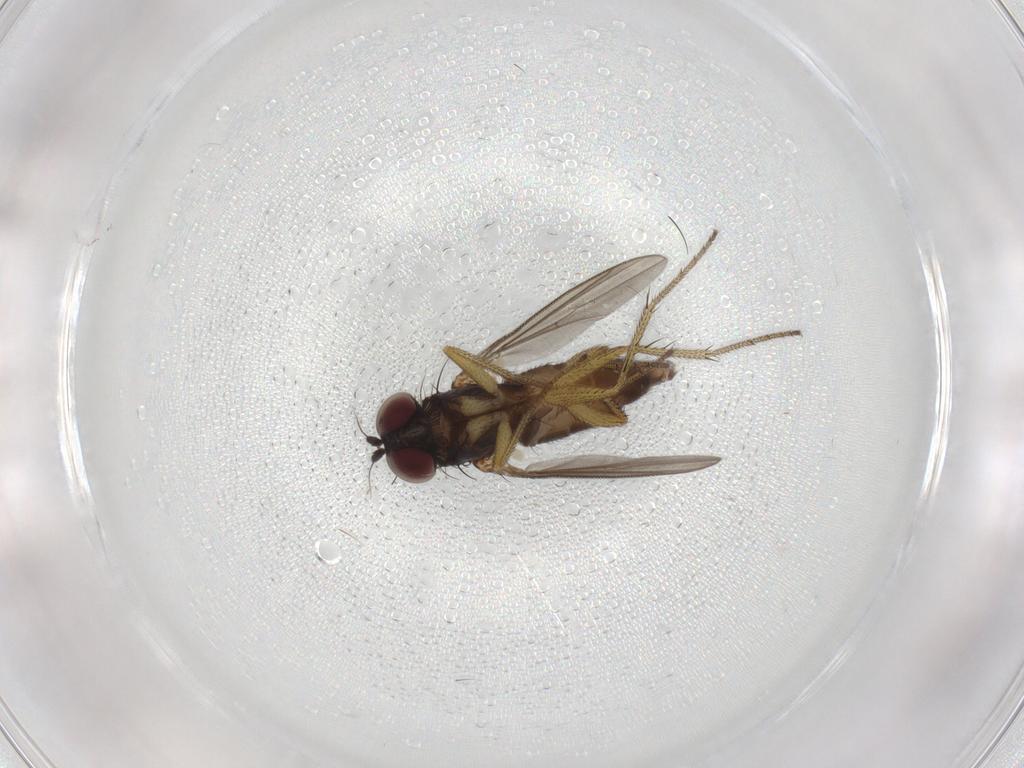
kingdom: Animalia
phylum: Arthropoda
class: Insecta
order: Diptera
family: Dolichopodidae
